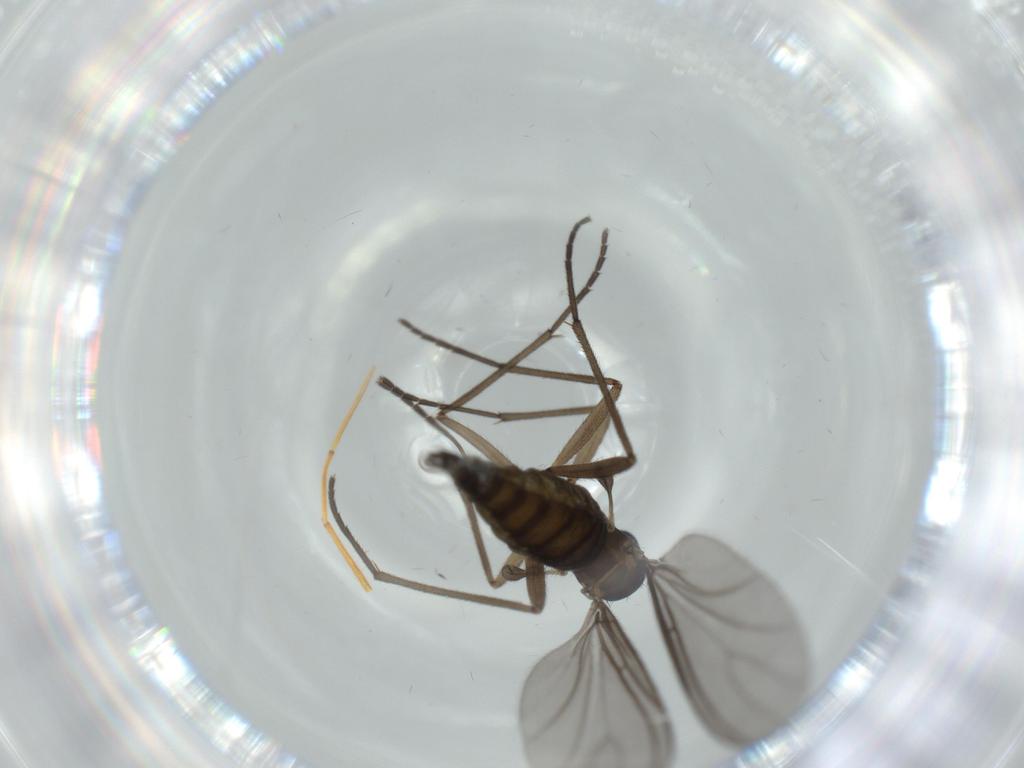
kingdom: Animalia
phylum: Arthropoda
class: Insecta
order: Diptera
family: Sciaridae
